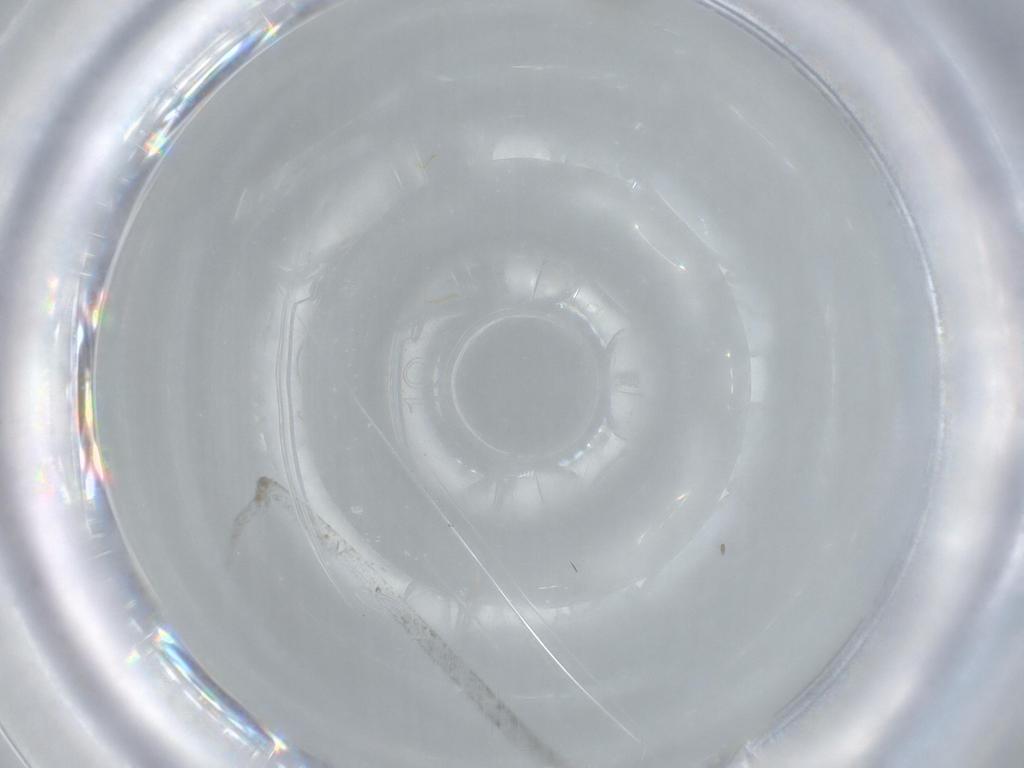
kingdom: Animalia
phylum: Arthropoda
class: Insecta
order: Diptera
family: Cecidomyiidae
